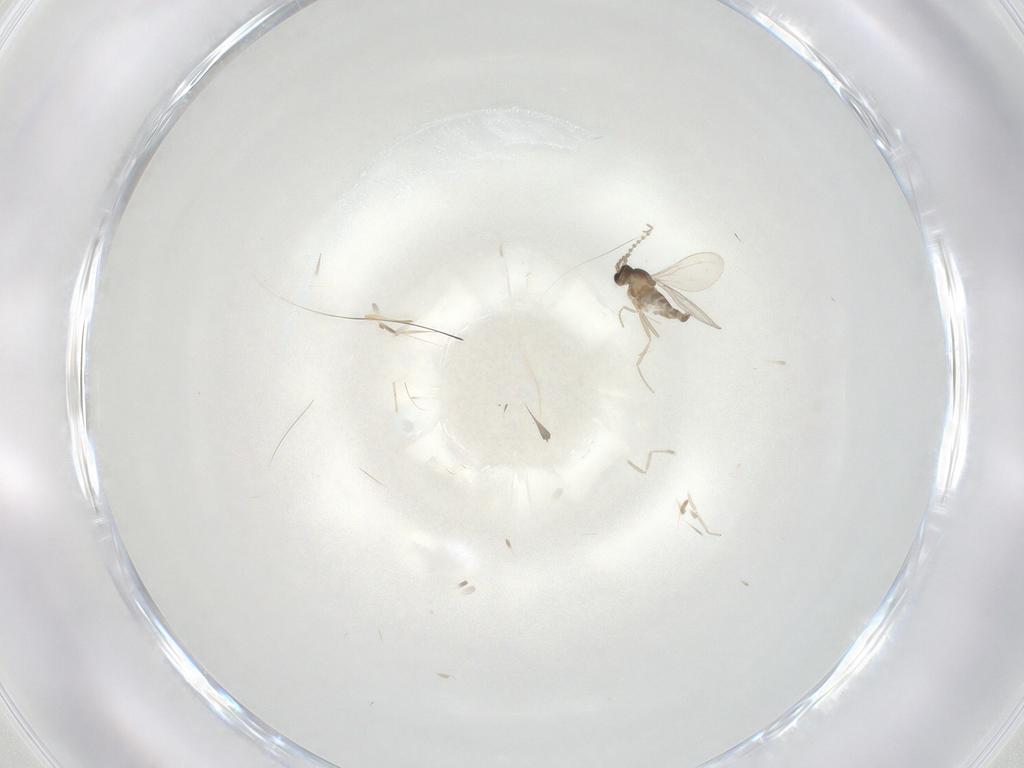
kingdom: Animalia
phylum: Arthropoda
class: Insecta
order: Diptera
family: Cecidomyiidae
